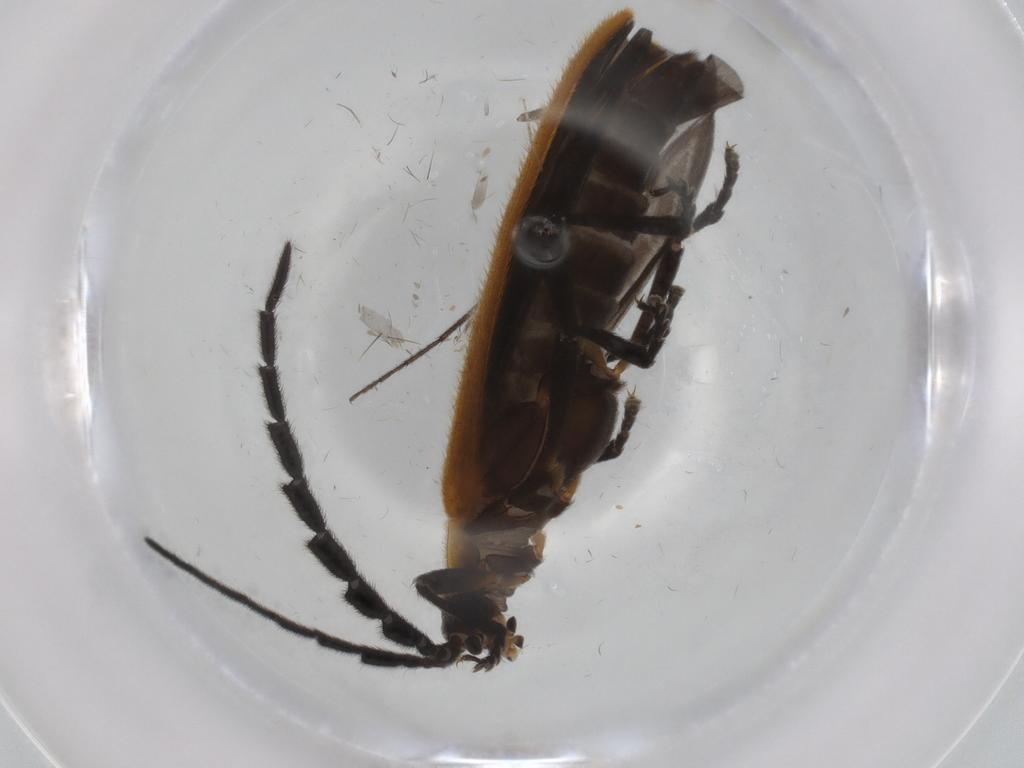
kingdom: Animalia
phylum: Arthropoda
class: Insecta
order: Coleoptera
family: Lycidae
